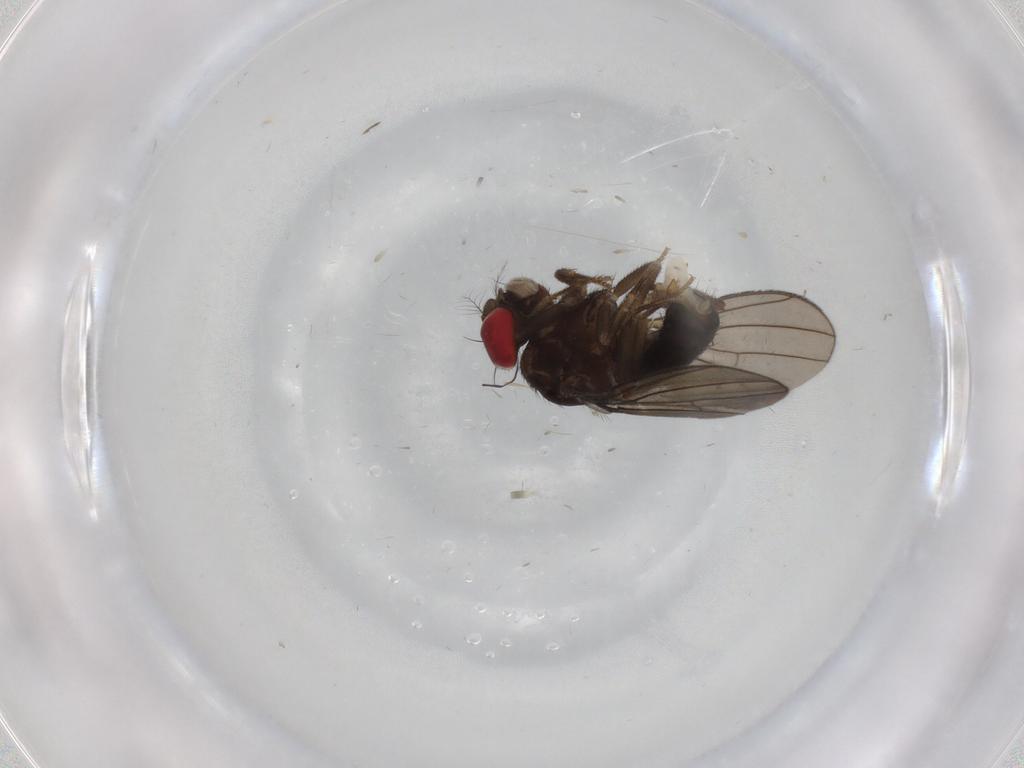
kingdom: Animalia
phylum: Arthropoda
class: Insecta
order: Diptera
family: Drosophilidae
